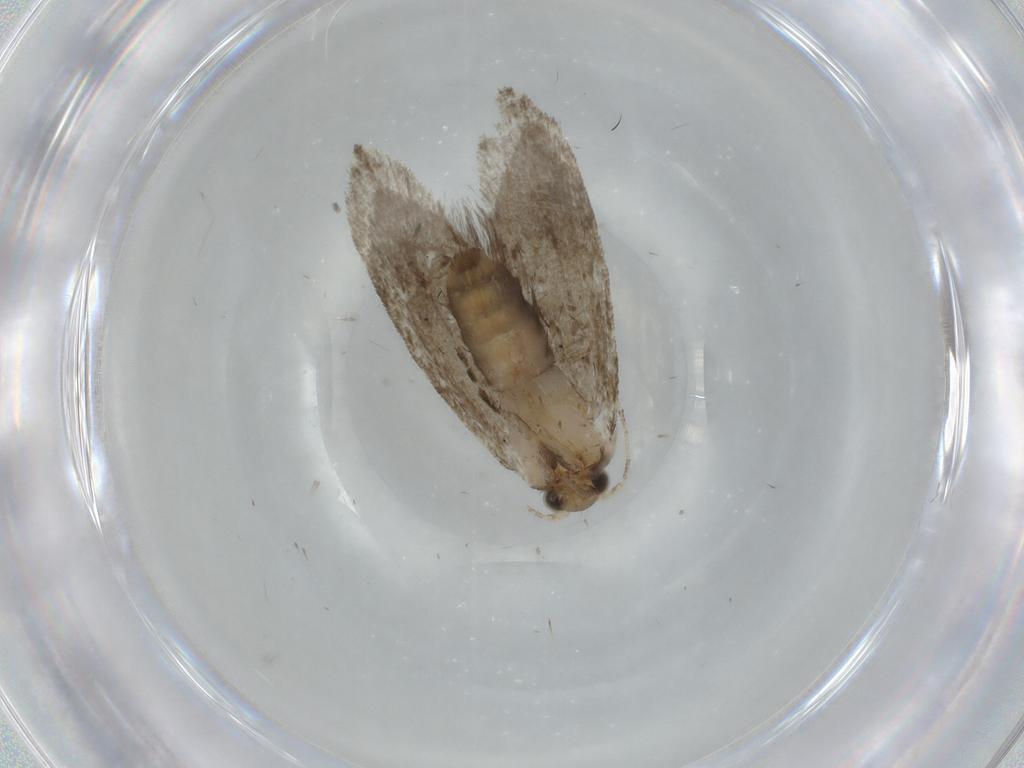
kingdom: Animalia
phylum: Arthropoda
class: Insecta
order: Lepidoptera
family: Tineidae
